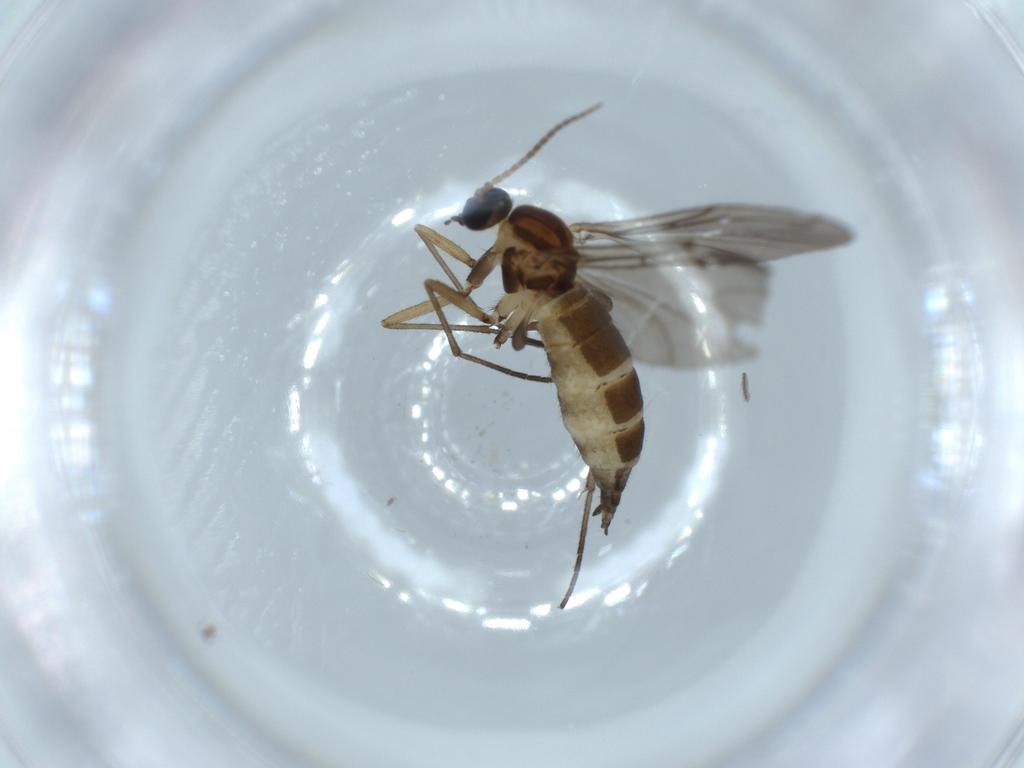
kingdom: Animalia
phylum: Arthropoda
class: Insecta
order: Diptera
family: Sciaridae
